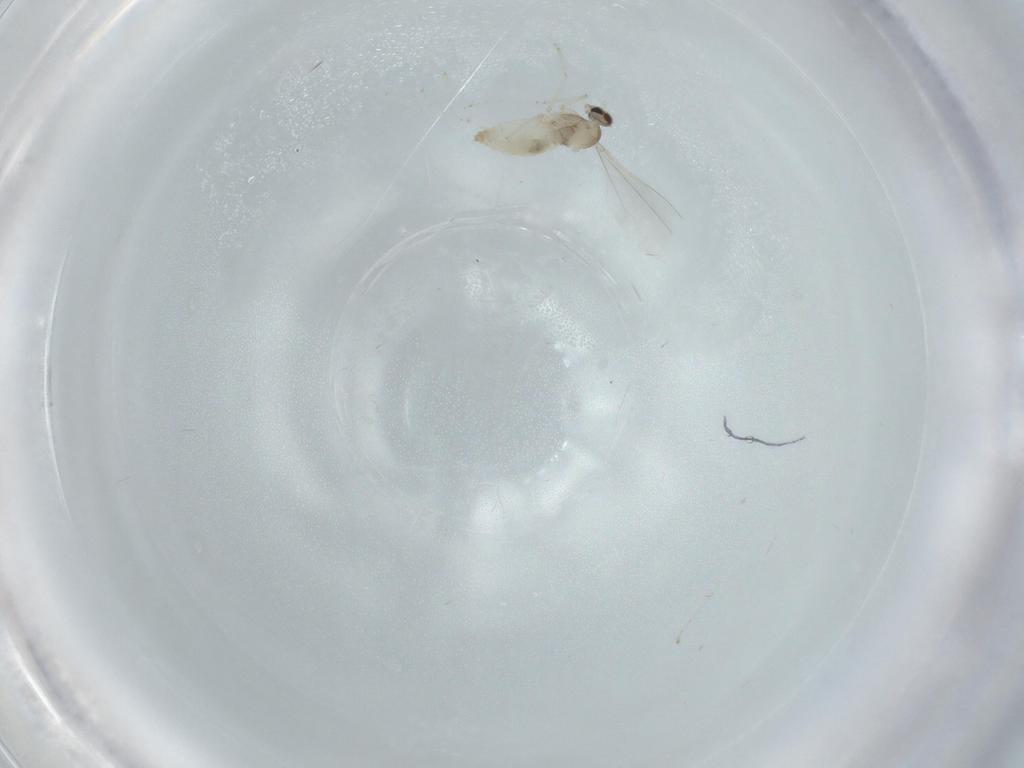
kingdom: Animalia
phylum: Arthropoda
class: Insecta
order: Diptera
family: Cecidomyiidae
